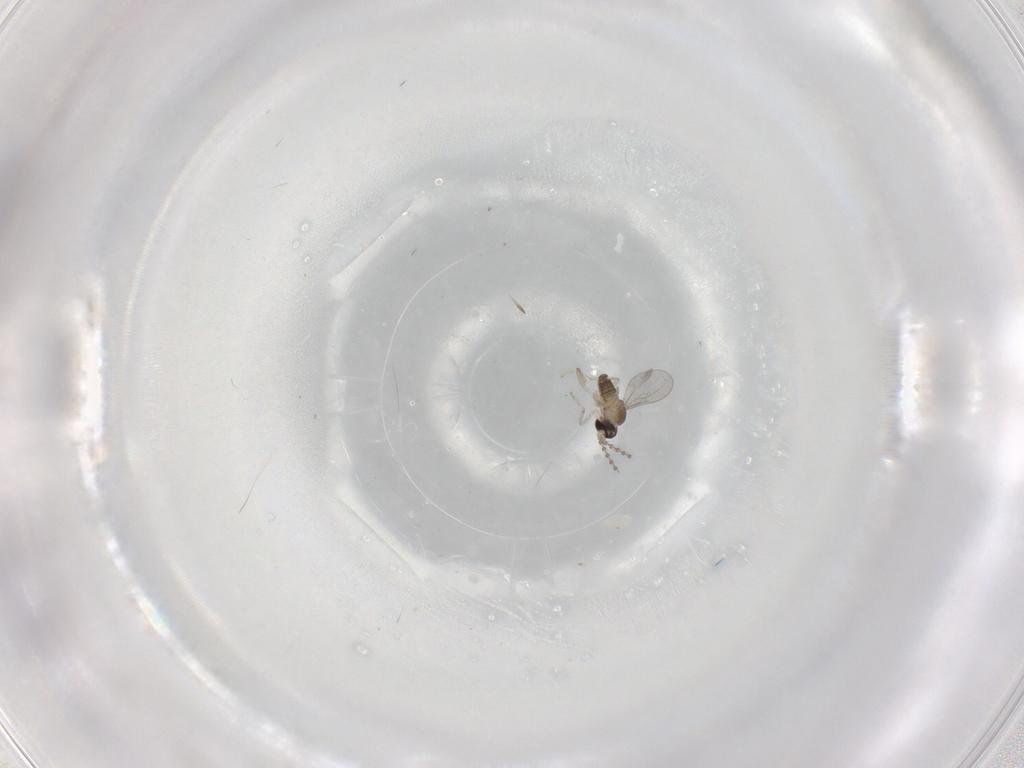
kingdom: Animalia
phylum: Arthropoda
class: Insecta
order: Diptera
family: Cecidomyiidae
